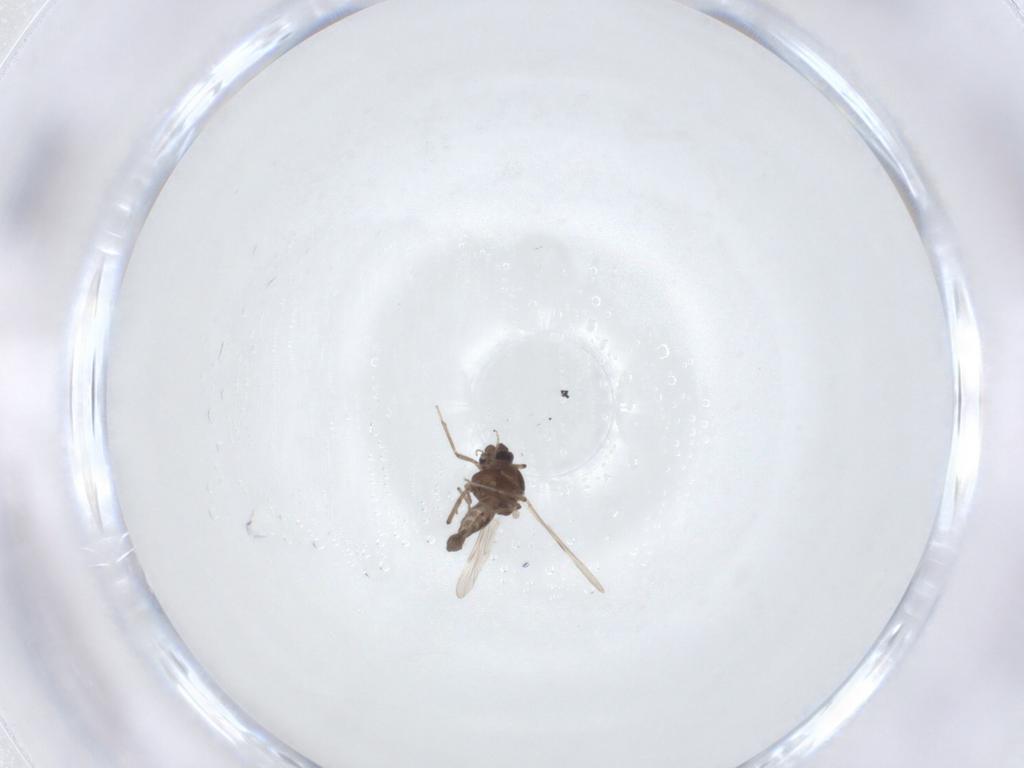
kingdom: Animalia
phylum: Arthropoda
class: Insecta
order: Diptera
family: Ceratopogonidae
